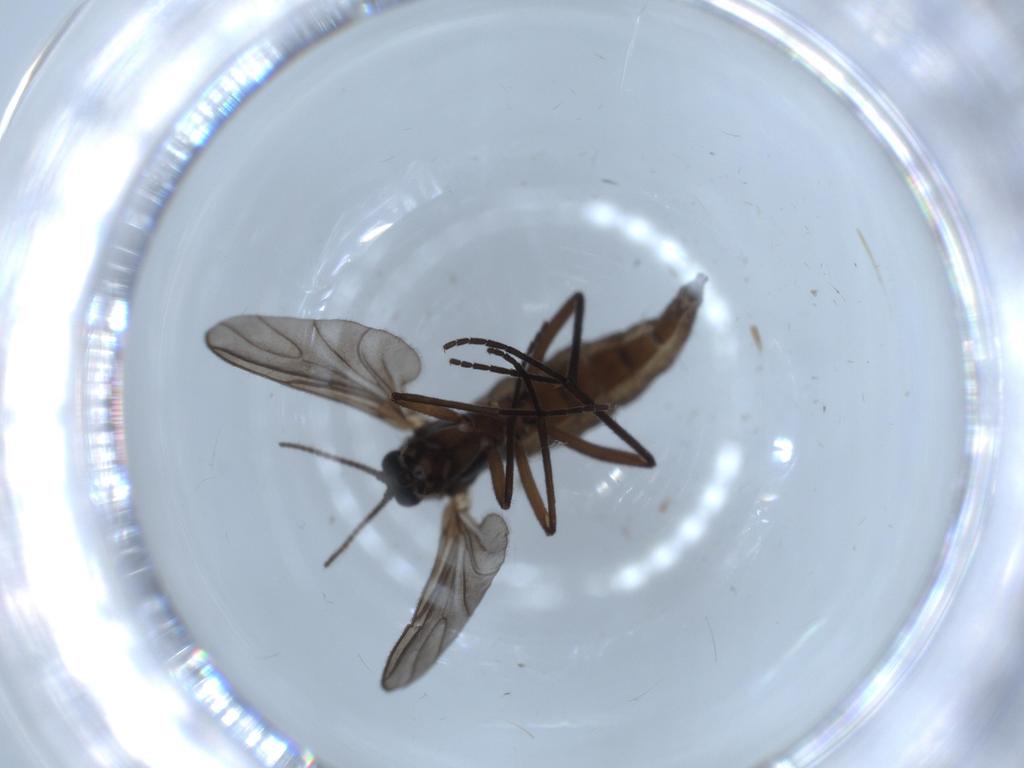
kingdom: Animalia
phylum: Arthropoda
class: Insecta
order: Diptera
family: Sciaridae
